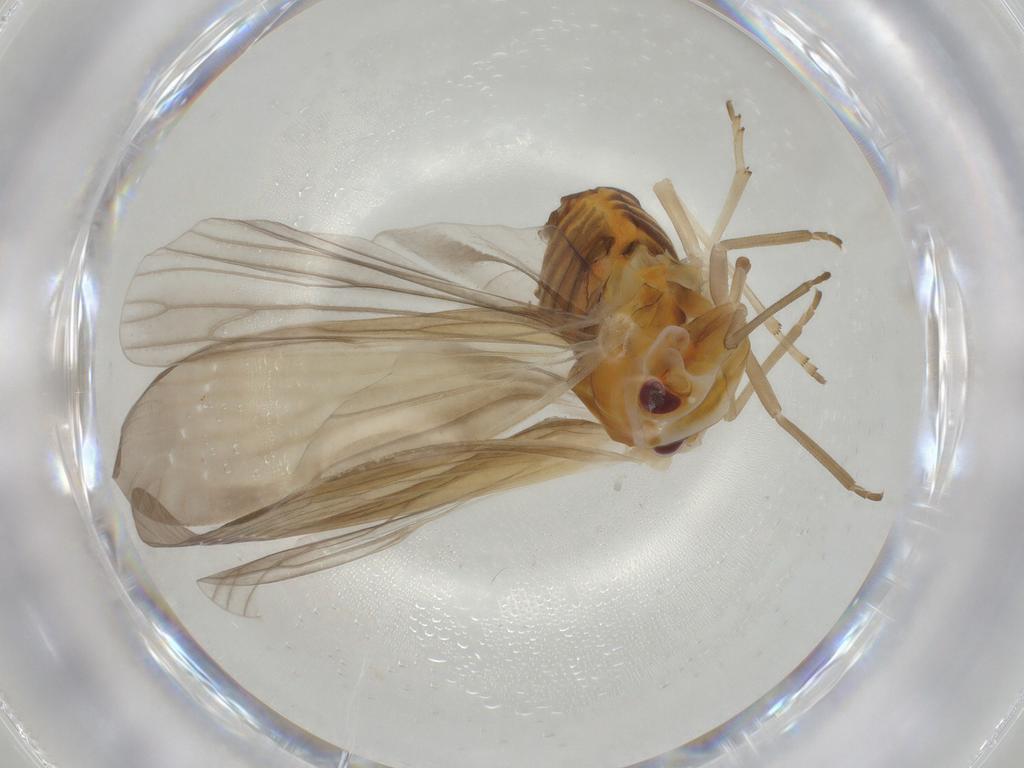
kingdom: Animalia
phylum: Arthropoda
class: Insecta
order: Hemiptera
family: Derbidae
